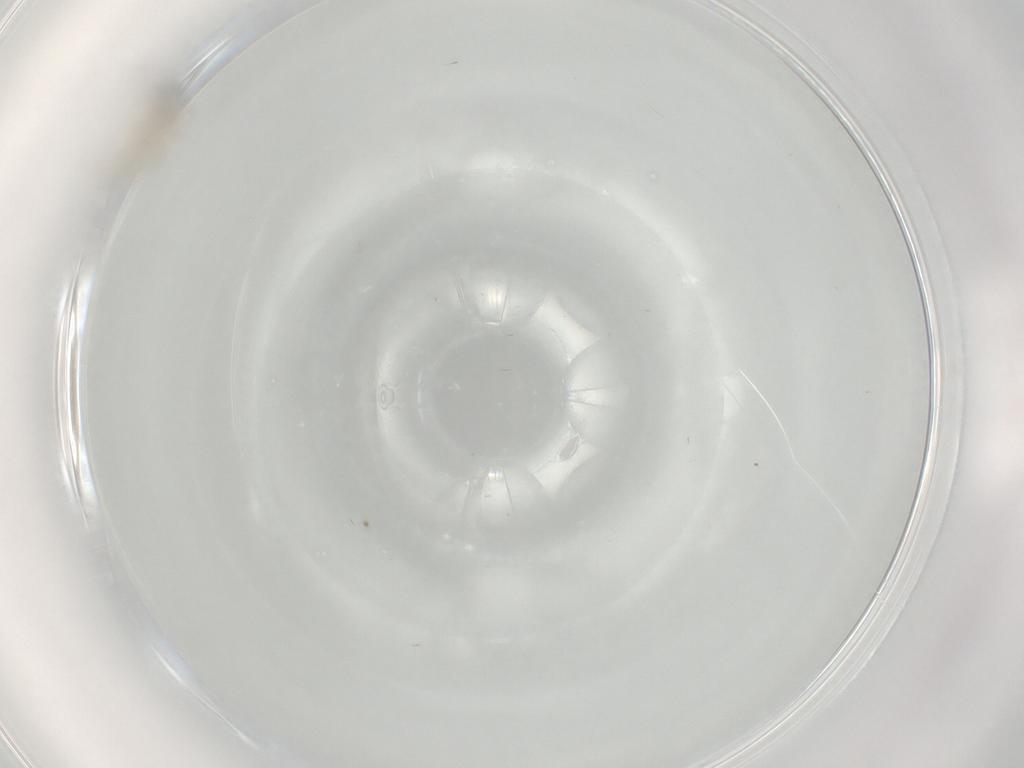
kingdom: Animalia
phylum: Arthropoda
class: Insecta
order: Diptera
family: Psychodidae
